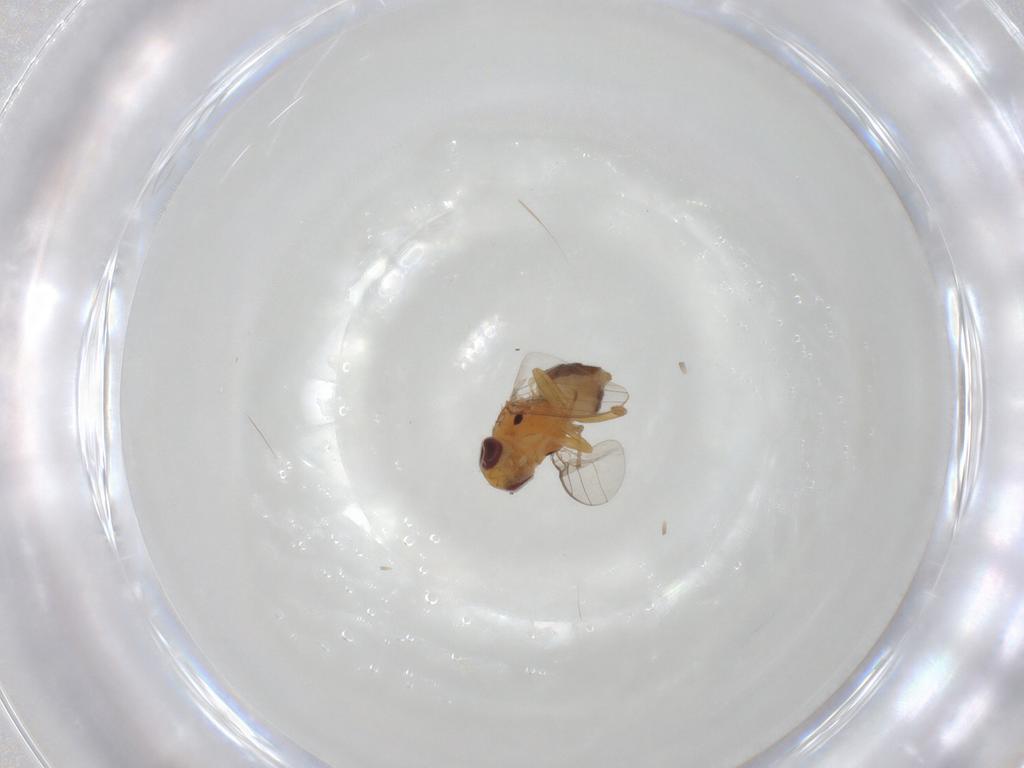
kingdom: Animalia
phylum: Arthropoda
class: Insecta
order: Diptera
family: Chloropidae
